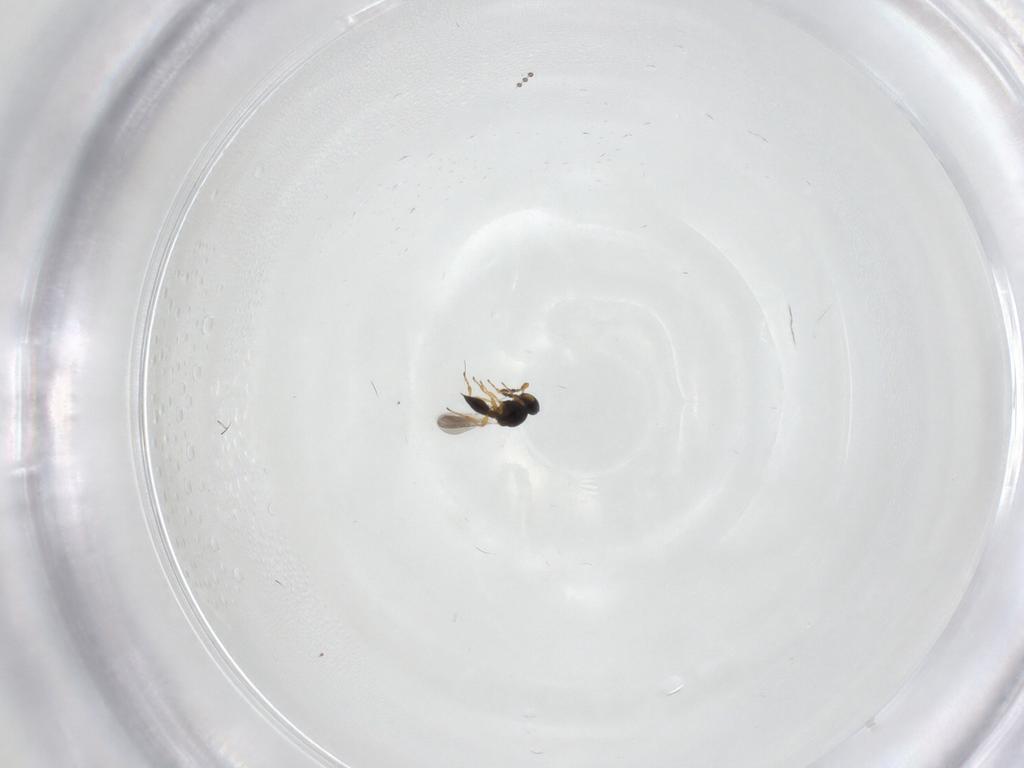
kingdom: Animalia
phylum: Arthropoda
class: Insecta
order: Hymenoptera
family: Platygastridae
